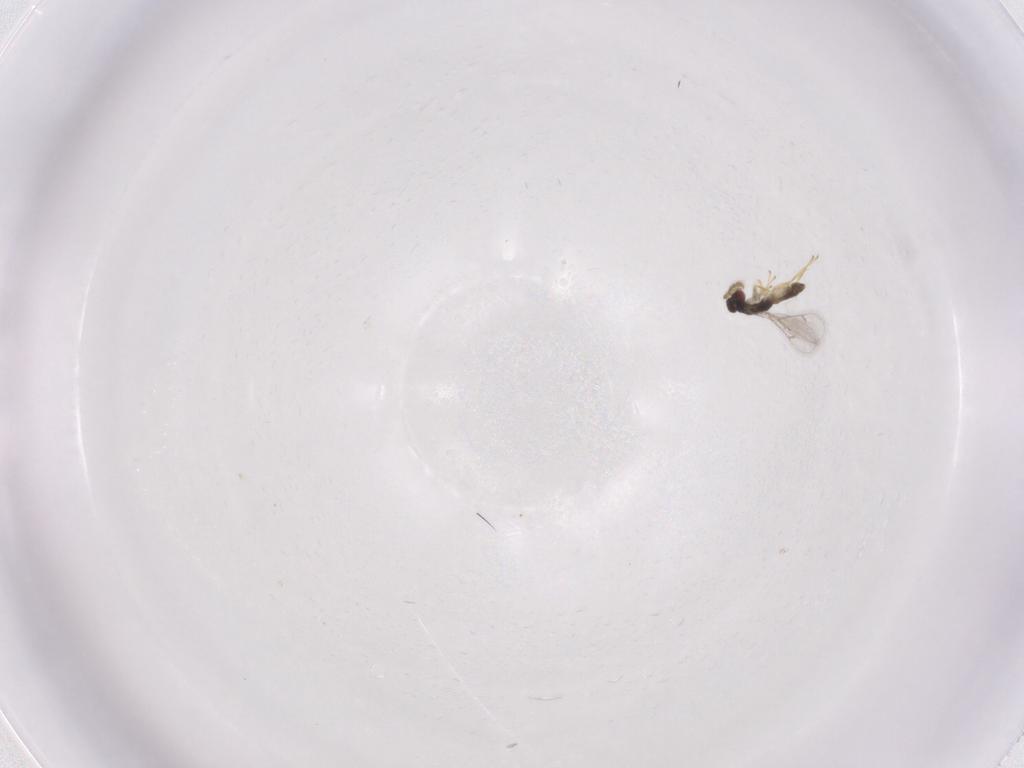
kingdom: Animalia
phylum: Arthropoda
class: Insecta
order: Hymenoptera
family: Eulophidae
